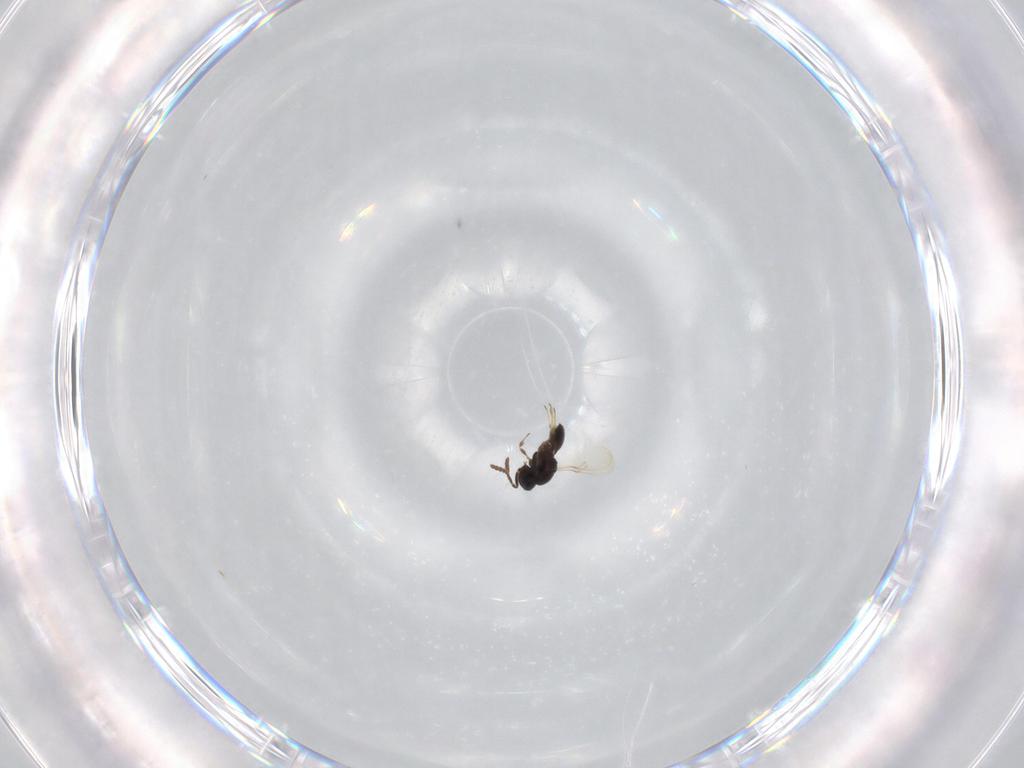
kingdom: Animalia
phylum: Arthropoda
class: Insecta
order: Hymenoptera
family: Scelionidae
